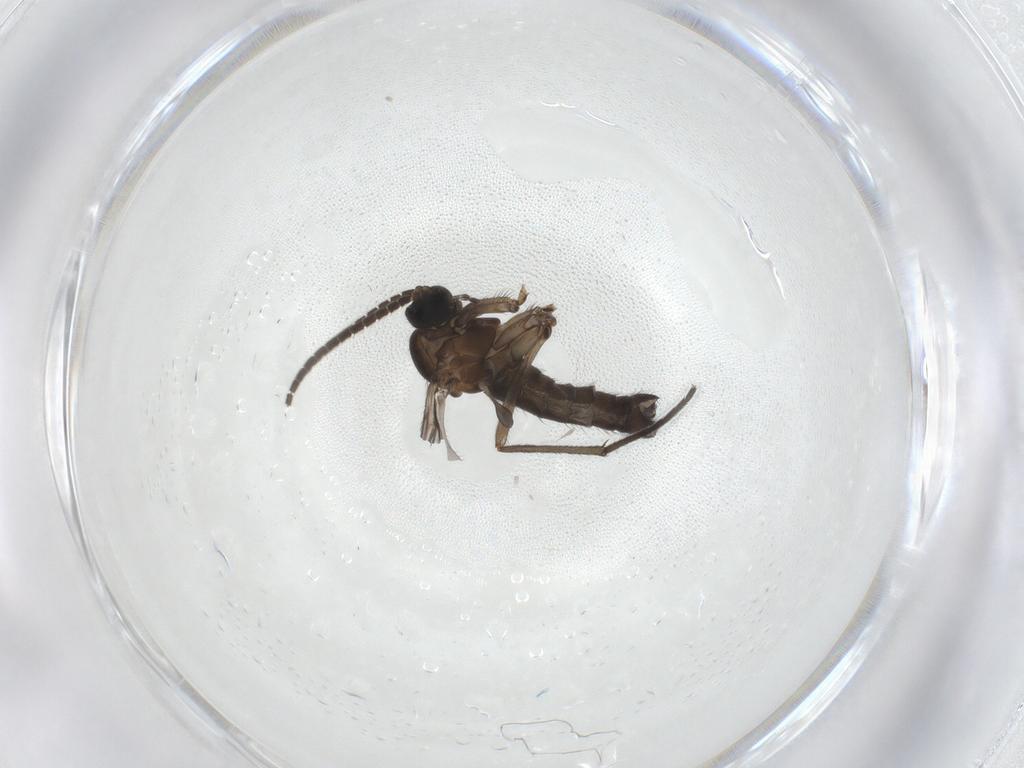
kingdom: Animalia
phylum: Arthropoda
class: Insecta
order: Diptera
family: Sciaridae
